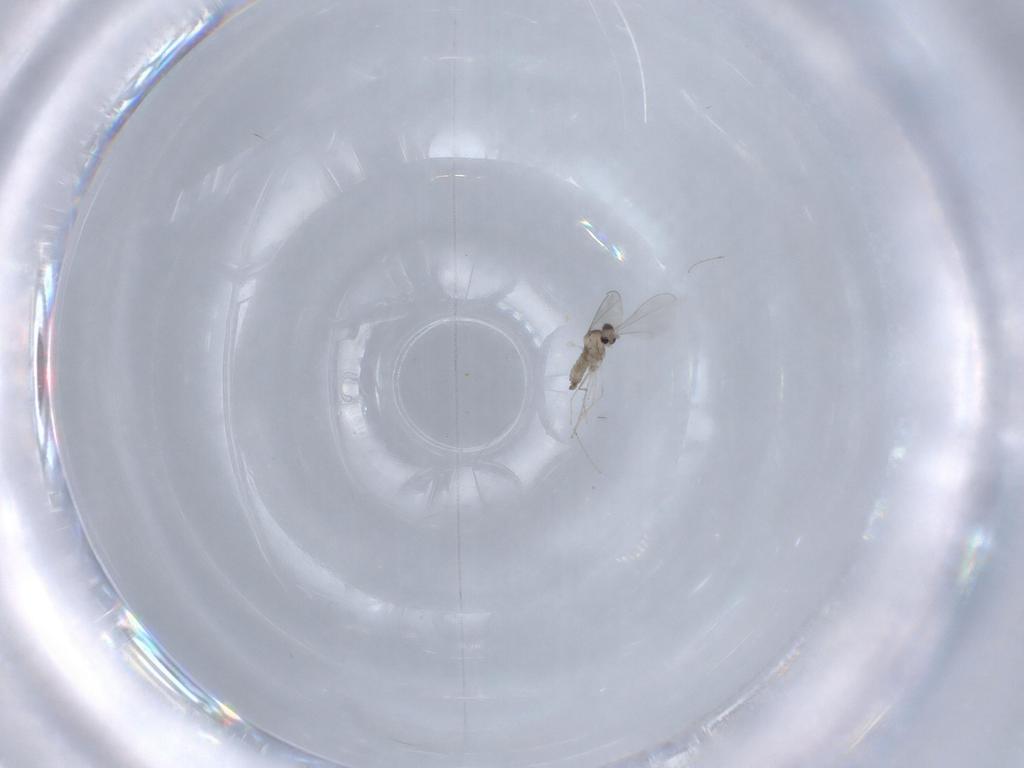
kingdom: Animalia
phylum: Arthropoda
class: Insecta
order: Diptera
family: Cecidomyiidae
